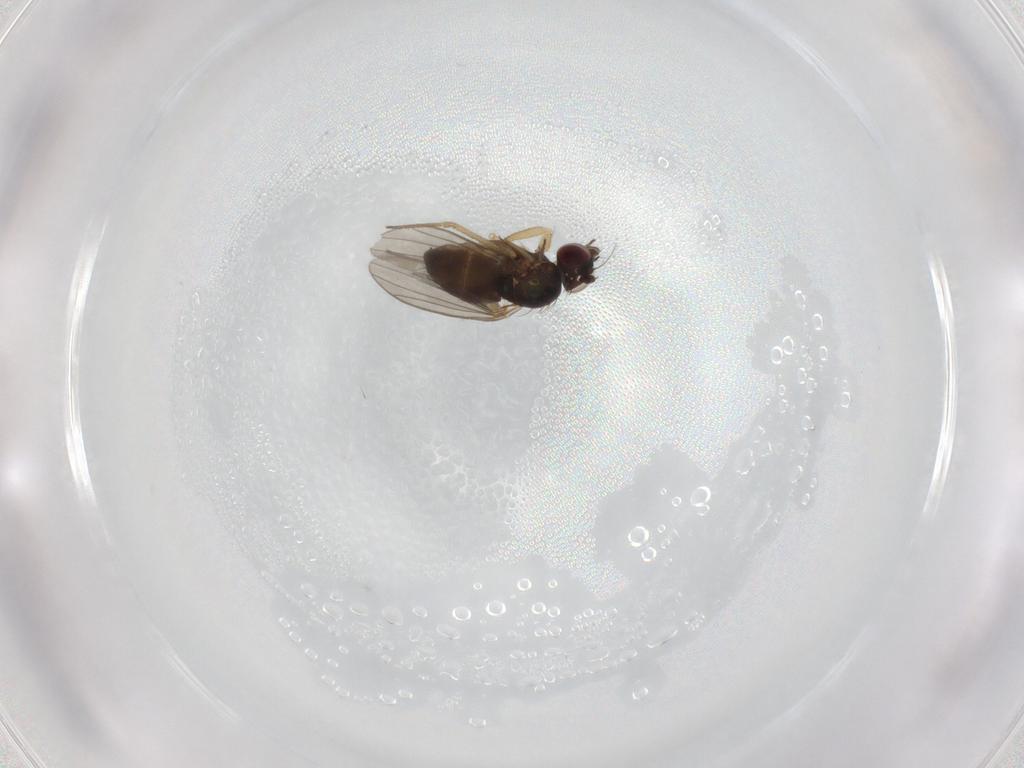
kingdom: Animalia
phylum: Arthropoda
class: Insecta
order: Diptera
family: Dolichopodidae
